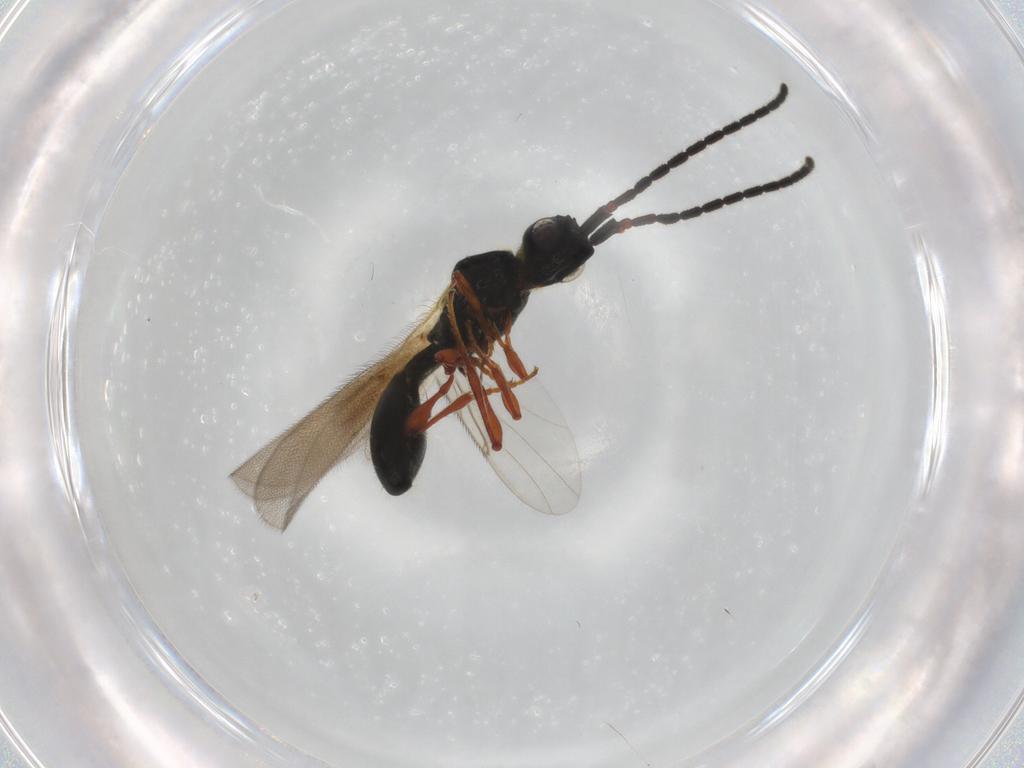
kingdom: Animalia
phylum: Arthropoda
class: Insecta
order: Hymenoptera
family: Diapriidae
